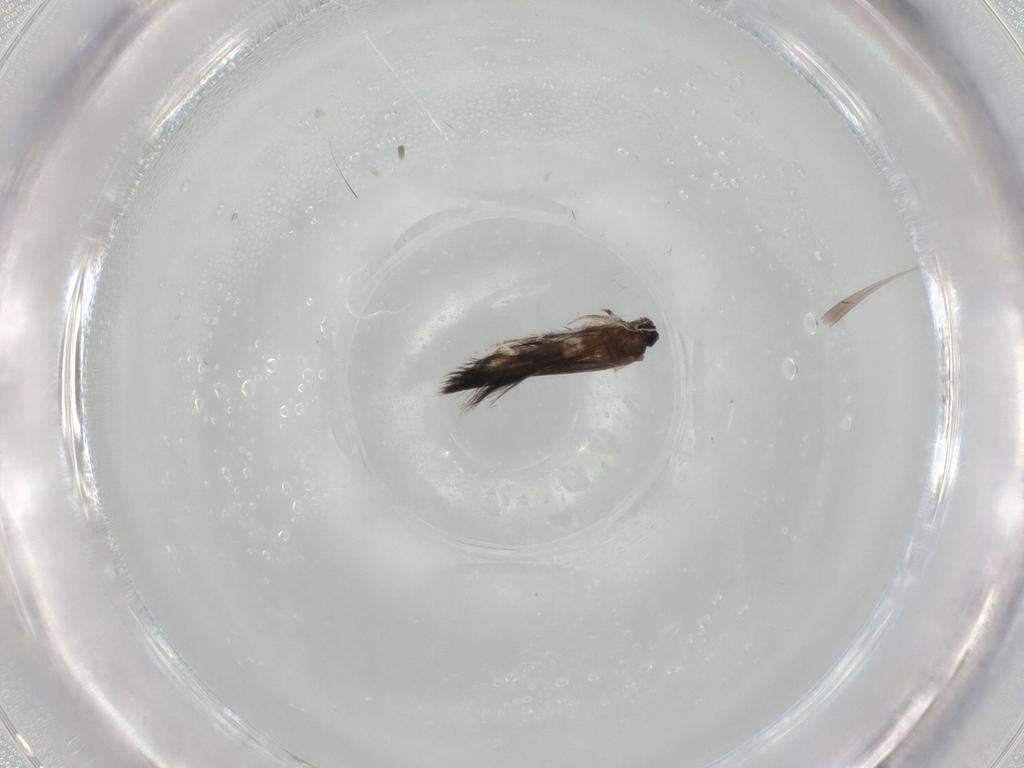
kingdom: Animalia
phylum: Arthropoda
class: Insecta
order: Trichoptera
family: Hydroptilidae
